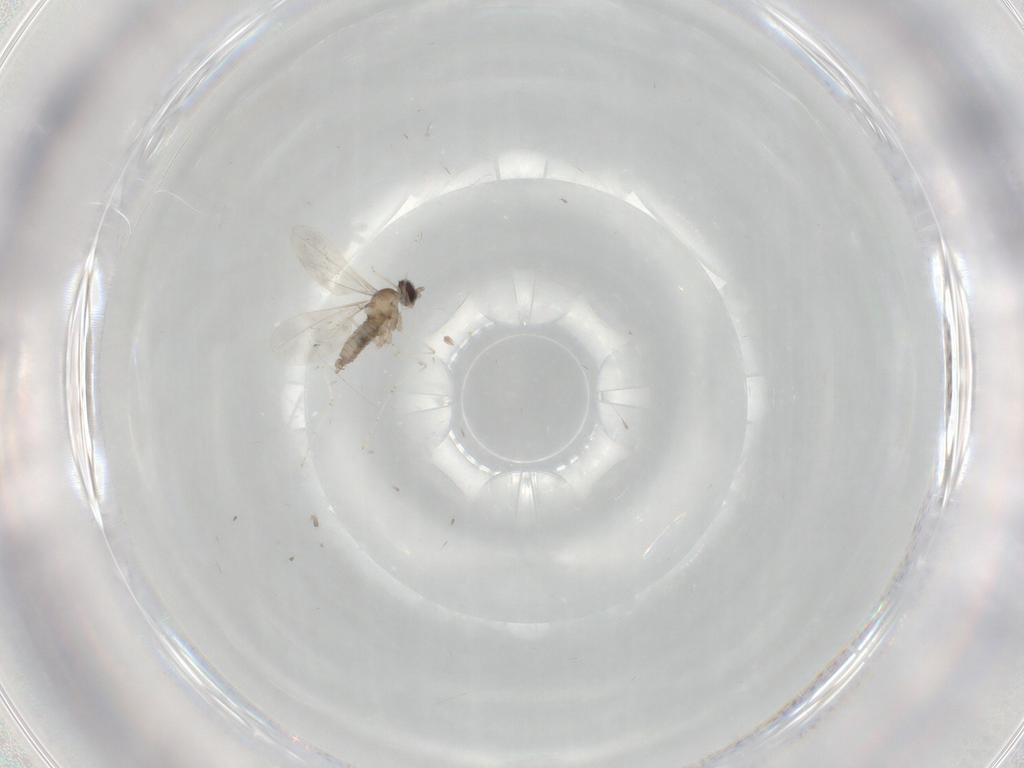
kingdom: Animalia
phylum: Arthropoda
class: Insecta
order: Diptera
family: Cecidomyiidae
